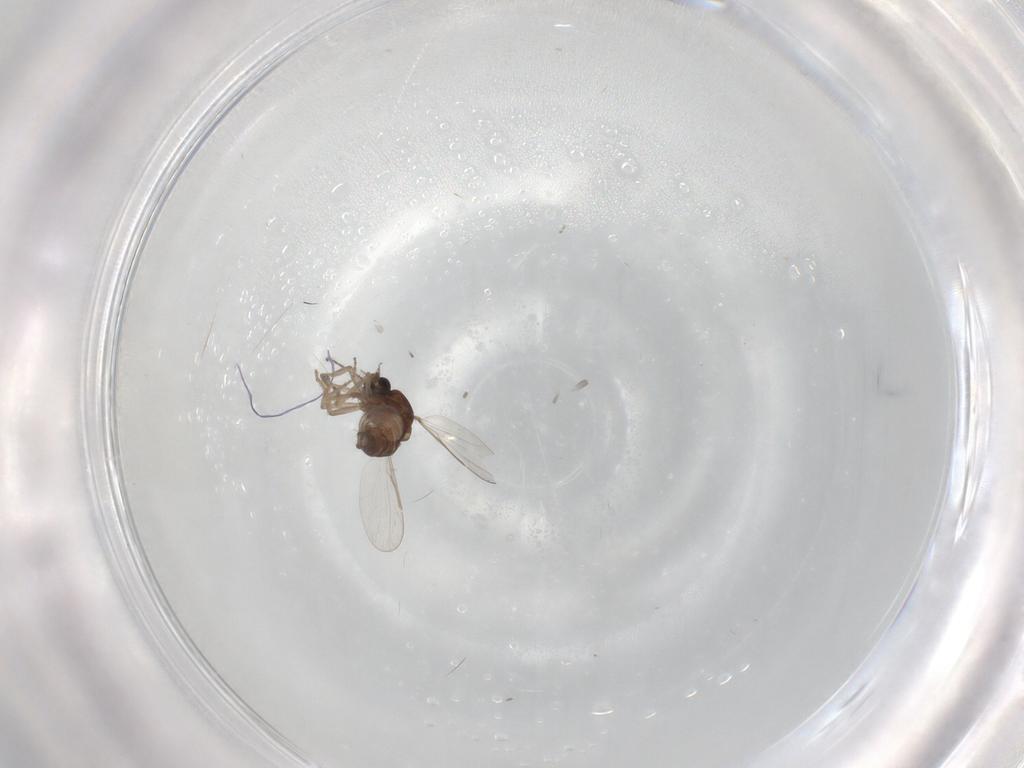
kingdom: Animalia
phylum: Arthropoda
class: Insecta
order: Diptera
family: Ceratopogonidae
